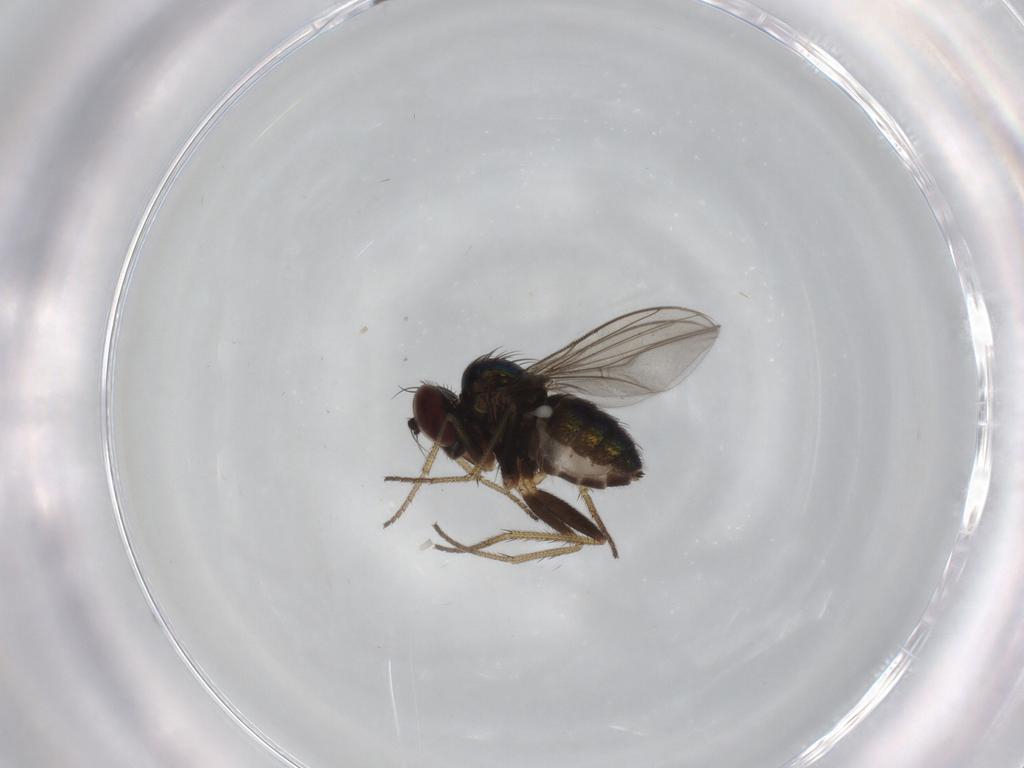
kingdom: Animalia
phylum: Arthropoda
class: Insecta
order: Diptera
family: Dolichopodidae
